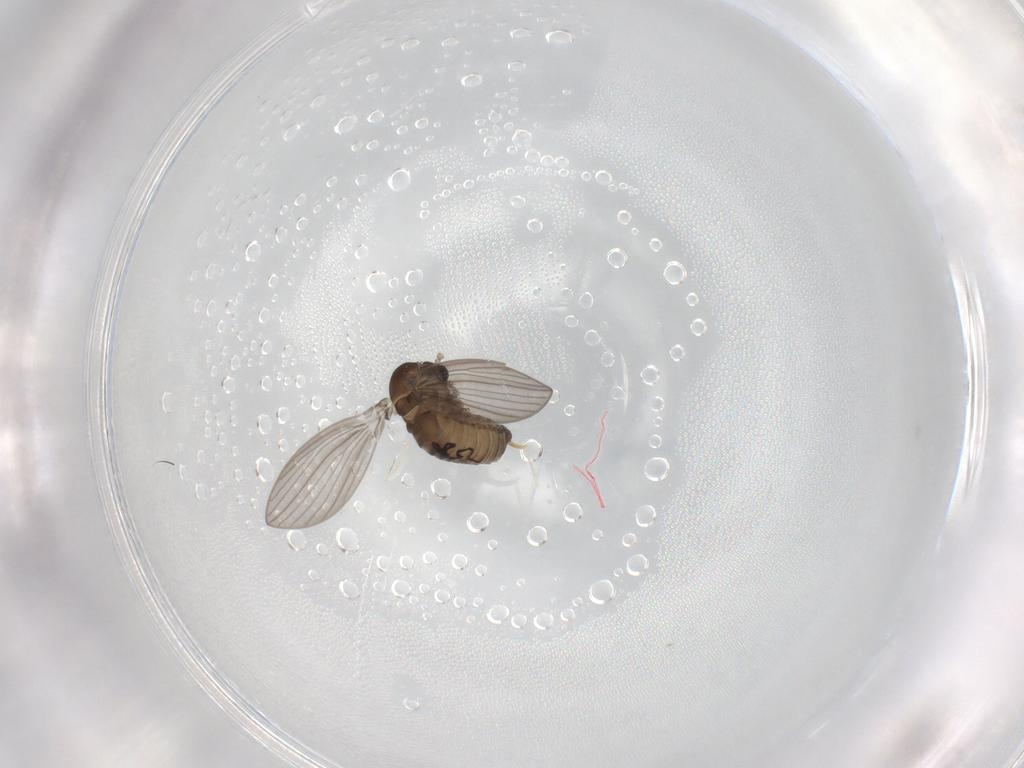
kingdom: Animalia
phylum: Arthropoda
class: Insecta
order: Diptera
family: Psychodidae
